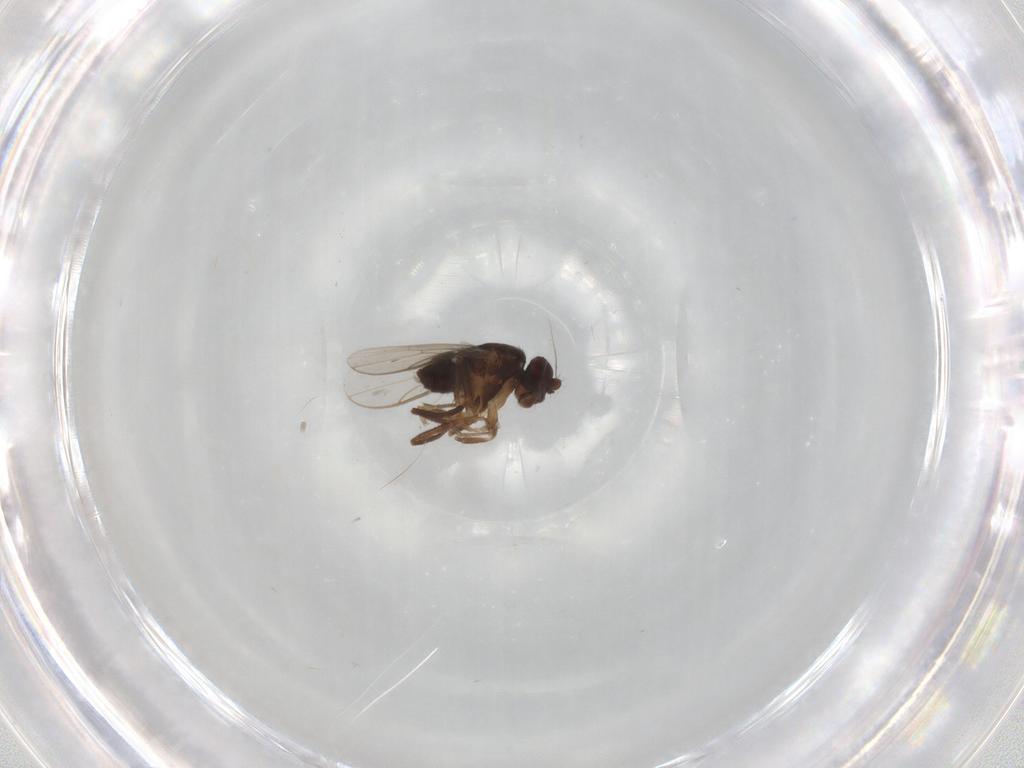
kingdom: Animalia
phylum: Arthropoda
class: Insecta
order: Diptera
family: Sphaeroceridae
